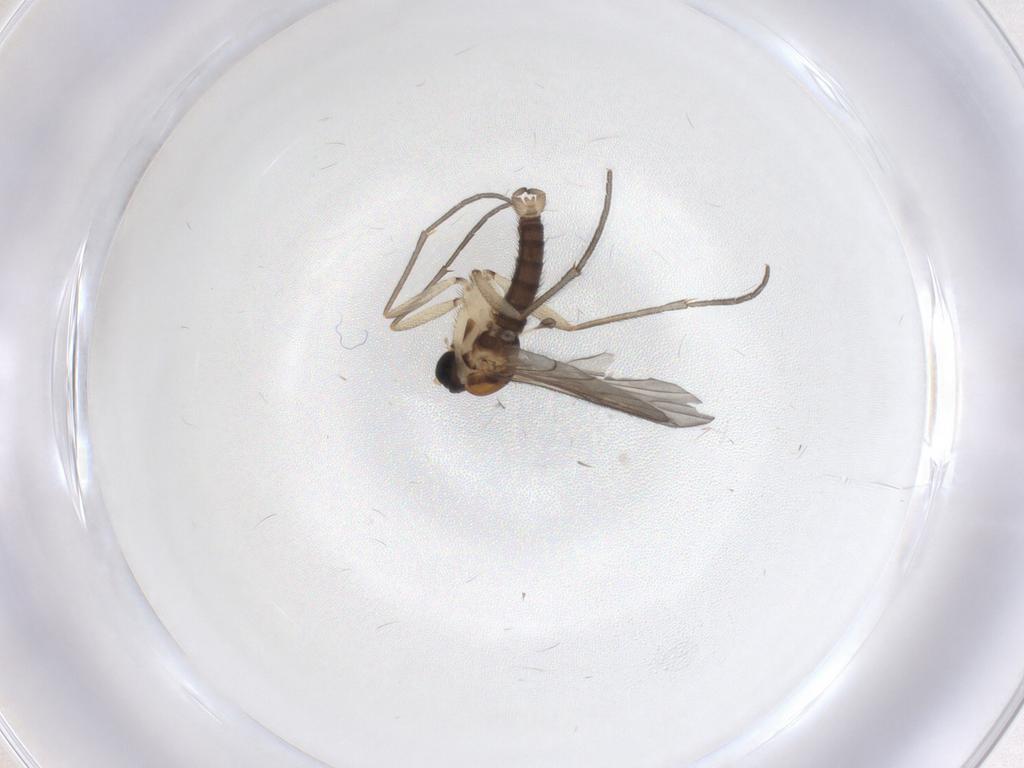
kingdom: Animalia
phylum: Arthropoda
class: Insecta
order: Diptera
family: Sciaridae
